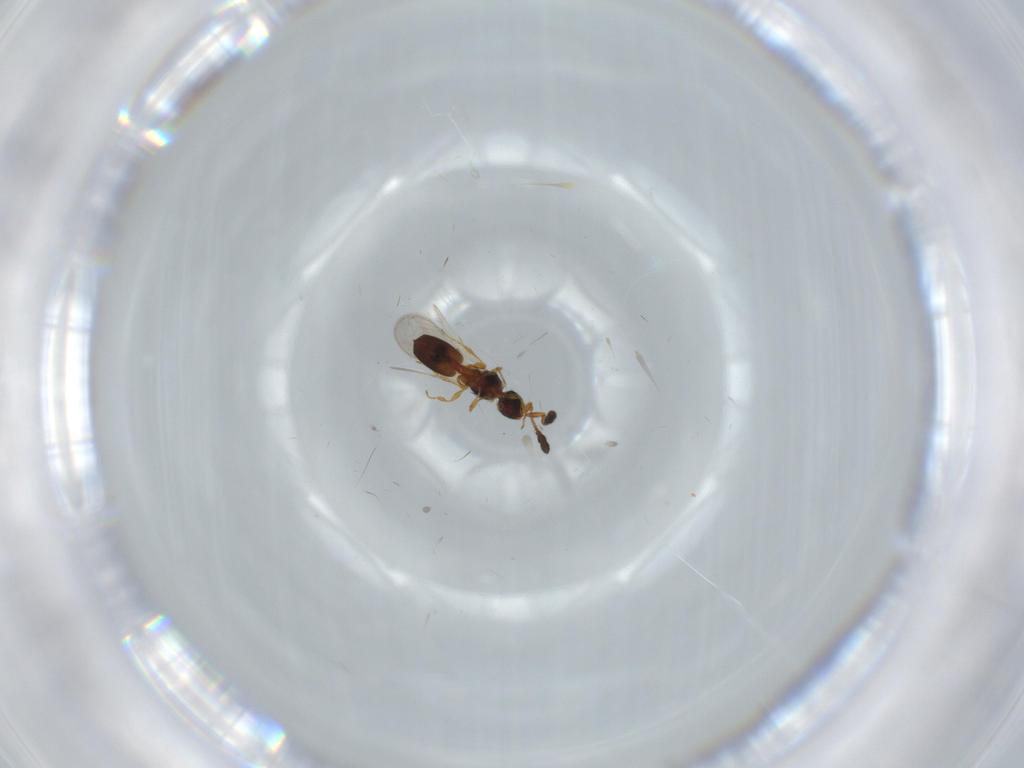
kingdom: Animalia
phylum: Arthropoda
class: Insecta
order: Hymenoptera
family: Diapriidae
